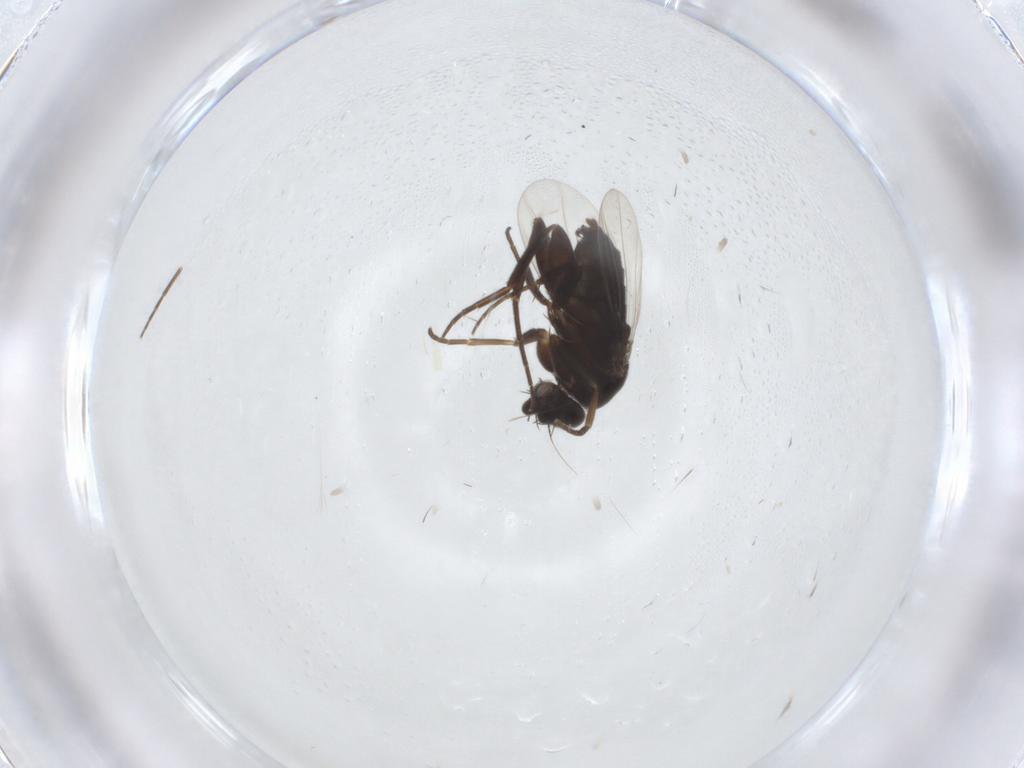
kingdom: Animalia
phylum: Arthropoda
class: Insecta
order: Diptera
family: Phoridae
